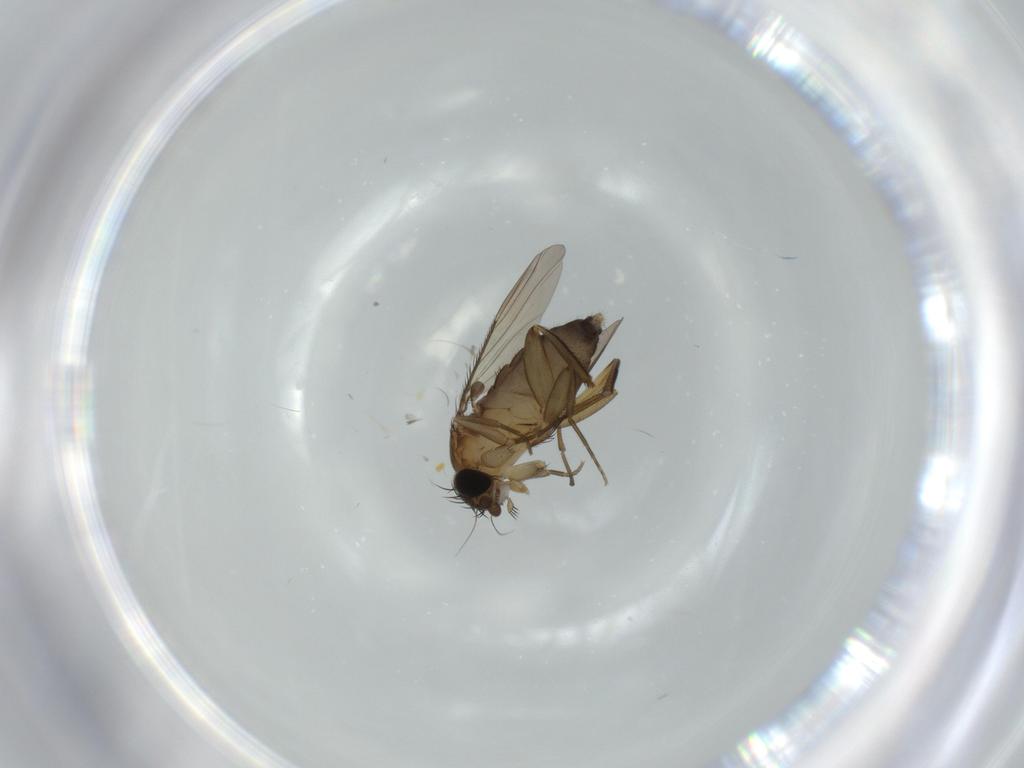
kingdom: Animalia
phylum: Arthropoda
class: Insecta
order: Diptera
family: Phoridae
